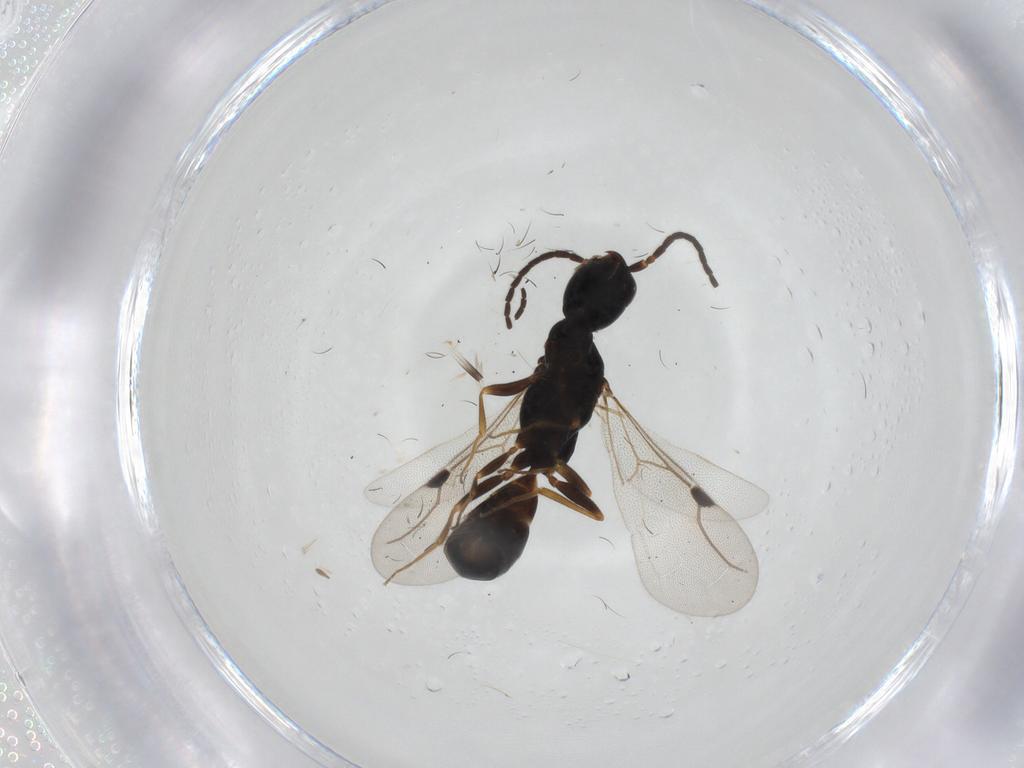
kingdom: Animalia
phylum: Arthropoda
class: Insecta
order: Hymenoptera
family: Bethylidae
